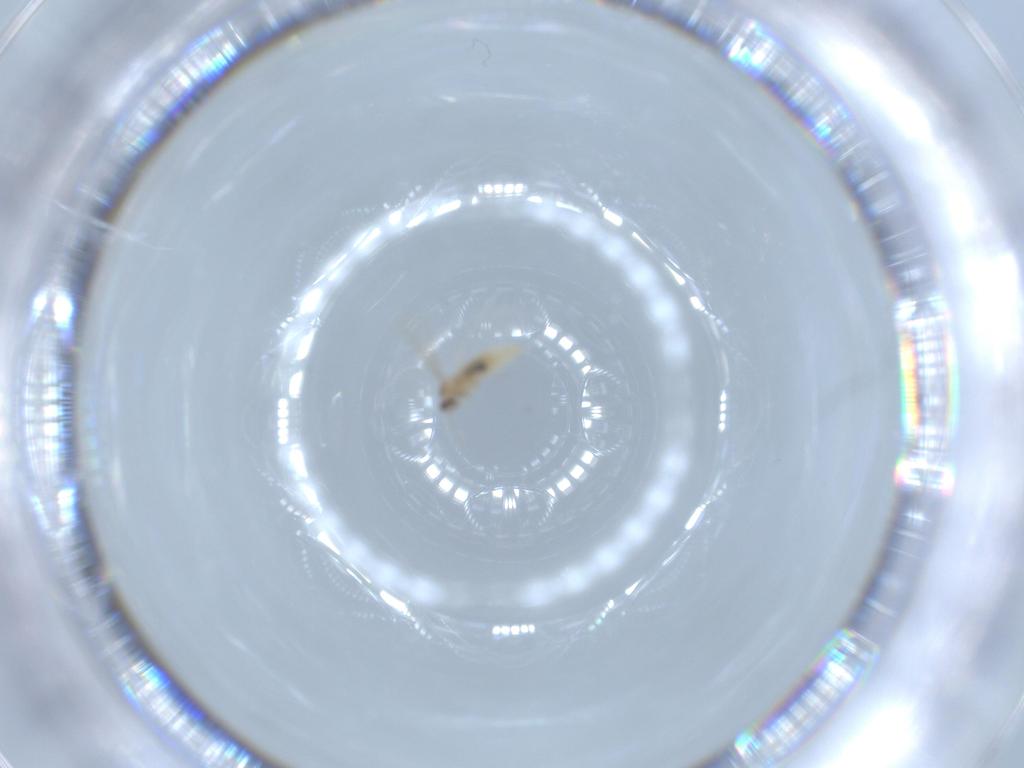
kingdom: Animalia
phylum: Arthropoda
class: Insecta
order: Diptera
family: Cecidomyiidae
